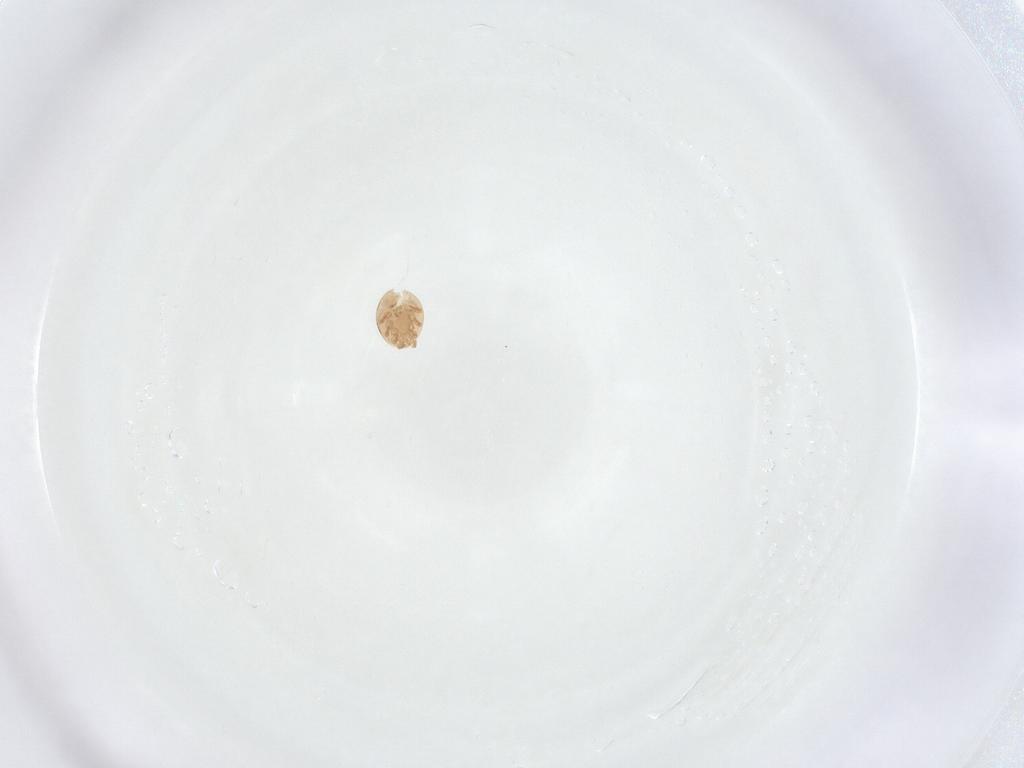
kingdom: Animalia
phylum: Arthropoda
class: Arachnida
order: Mesostigmata
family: Trematuridae
